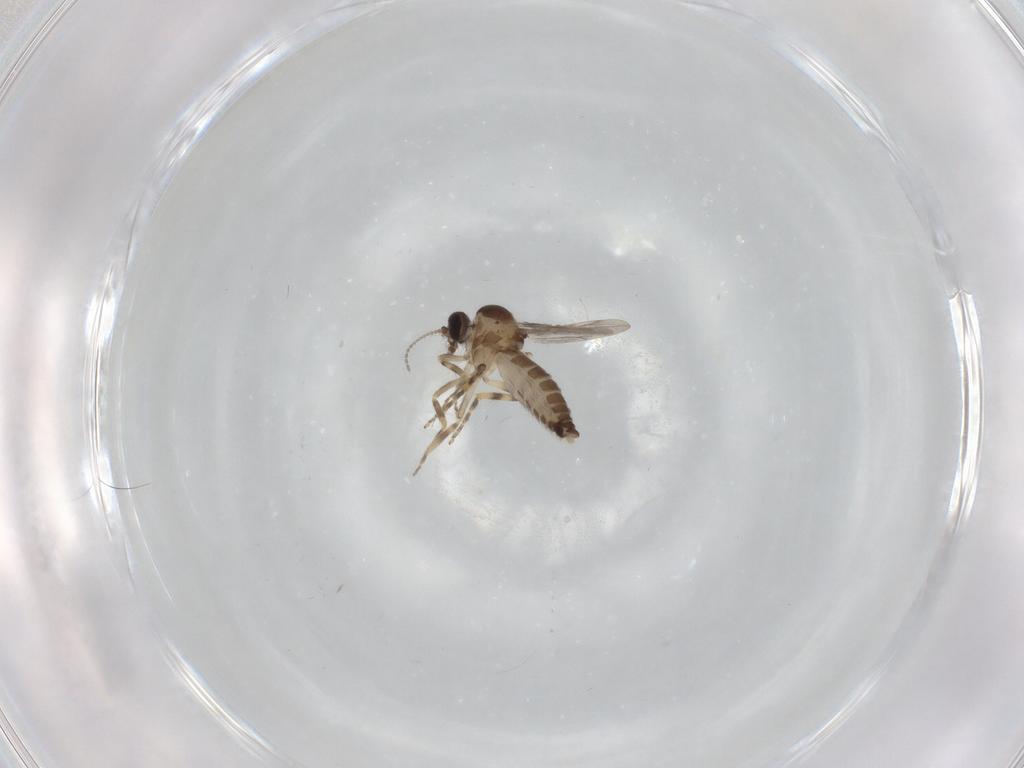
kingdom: Animalia
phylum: Arthropoda
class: Insecta
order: Diptera
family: Ceratopogonidae
